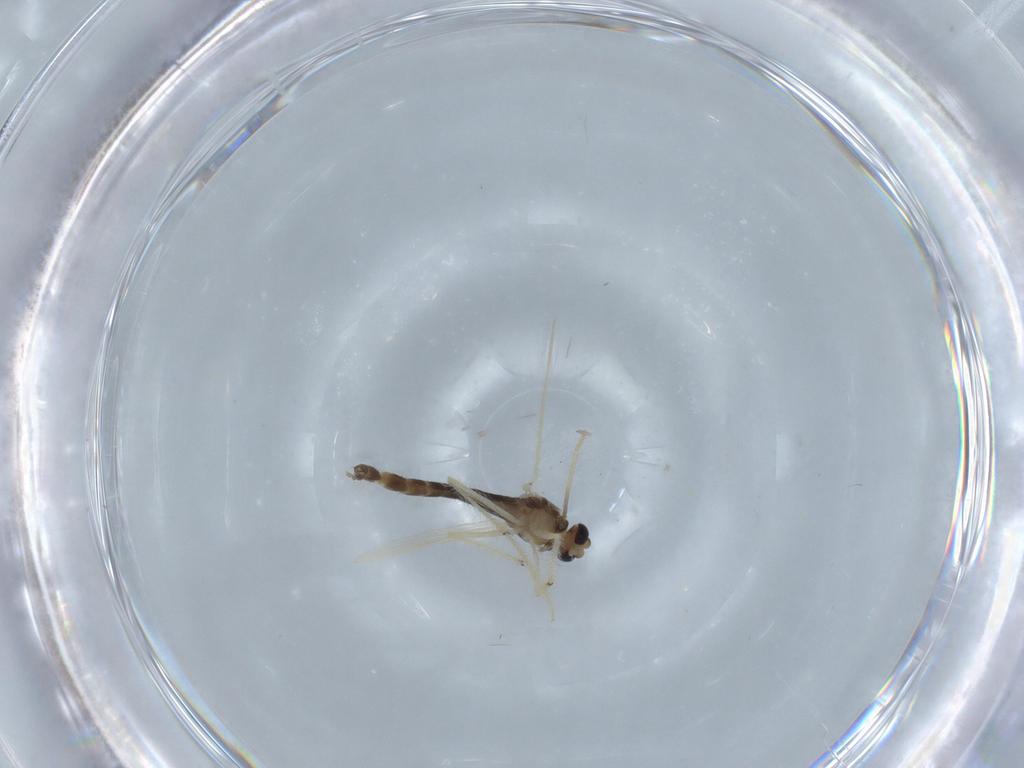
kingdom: Animalia
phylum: Arthropoda
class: Insecta
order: Diptera
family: Chironomidae
